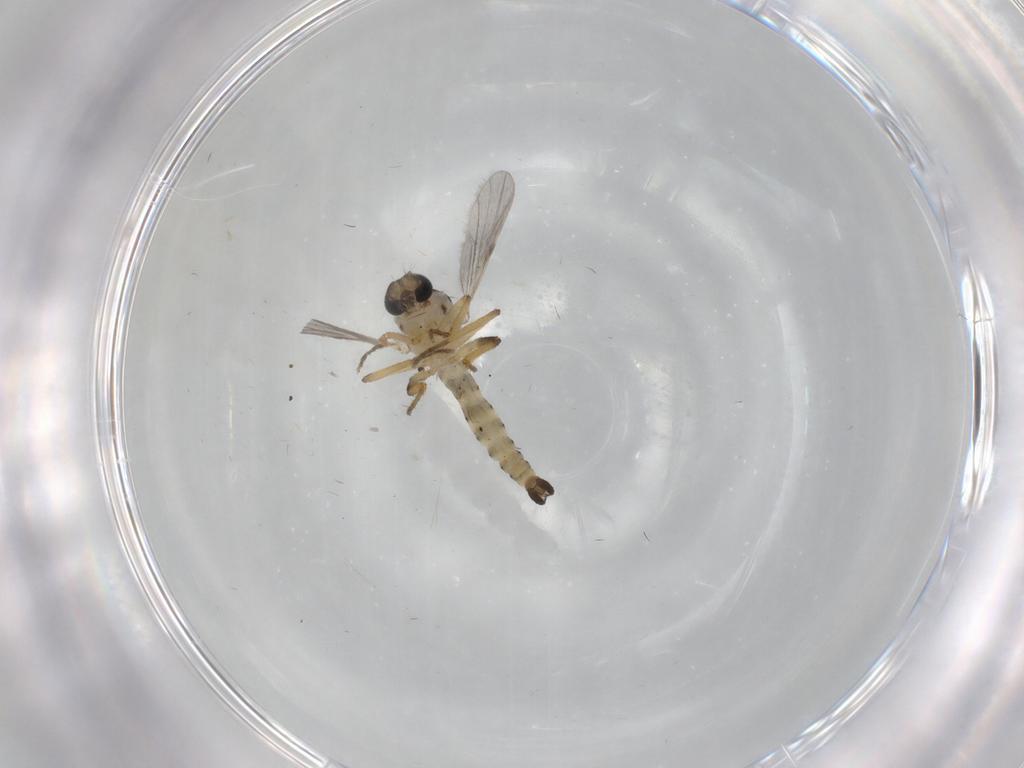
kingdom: Animalia
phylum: Arthropoda
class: Insecta
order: Diptera
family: Ceratopogonidae
